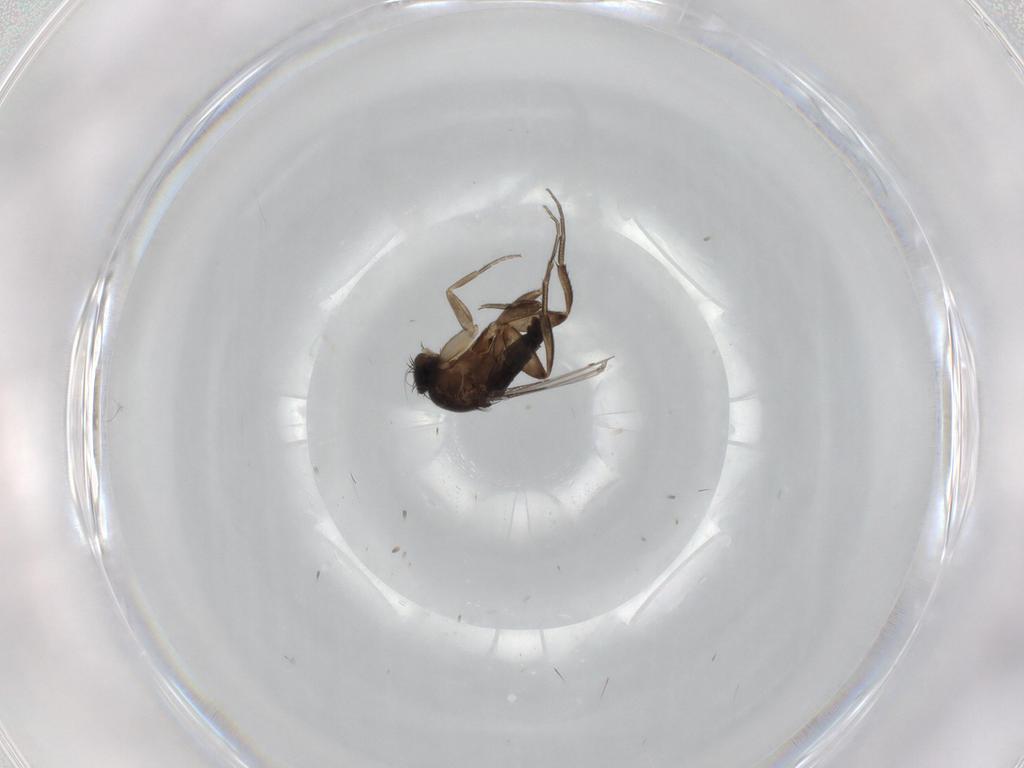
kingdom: Animalia
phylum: Arthropoda
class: Insecta
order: Diptera
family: Phoridae
